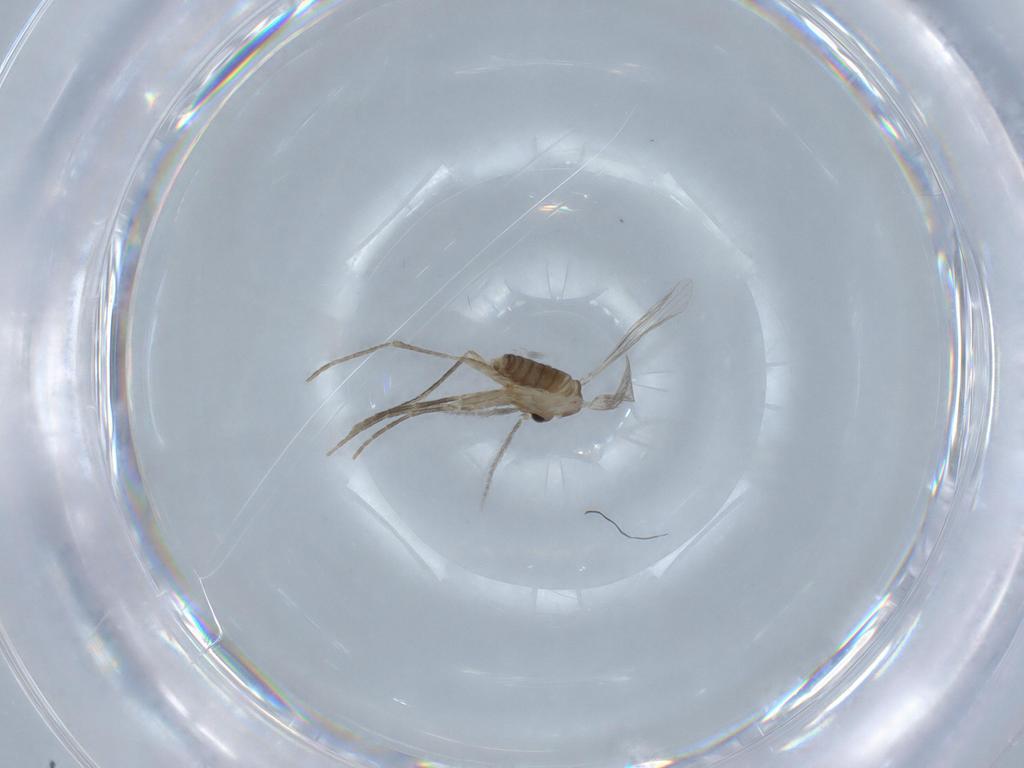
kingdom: Animalia
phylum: Arthropoda
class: Insecta
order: Diptera
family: Psychodidae
